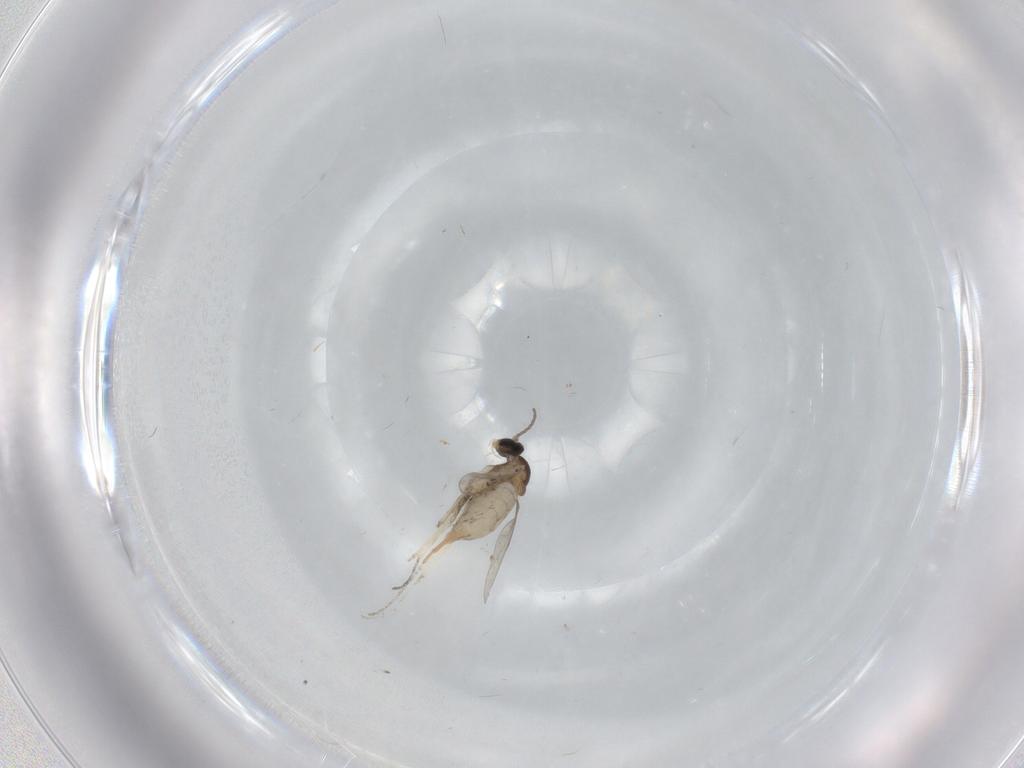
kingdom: Animalia
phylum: Arthropoda
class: Insecta
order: Diptera
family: Cecidomyiidae
